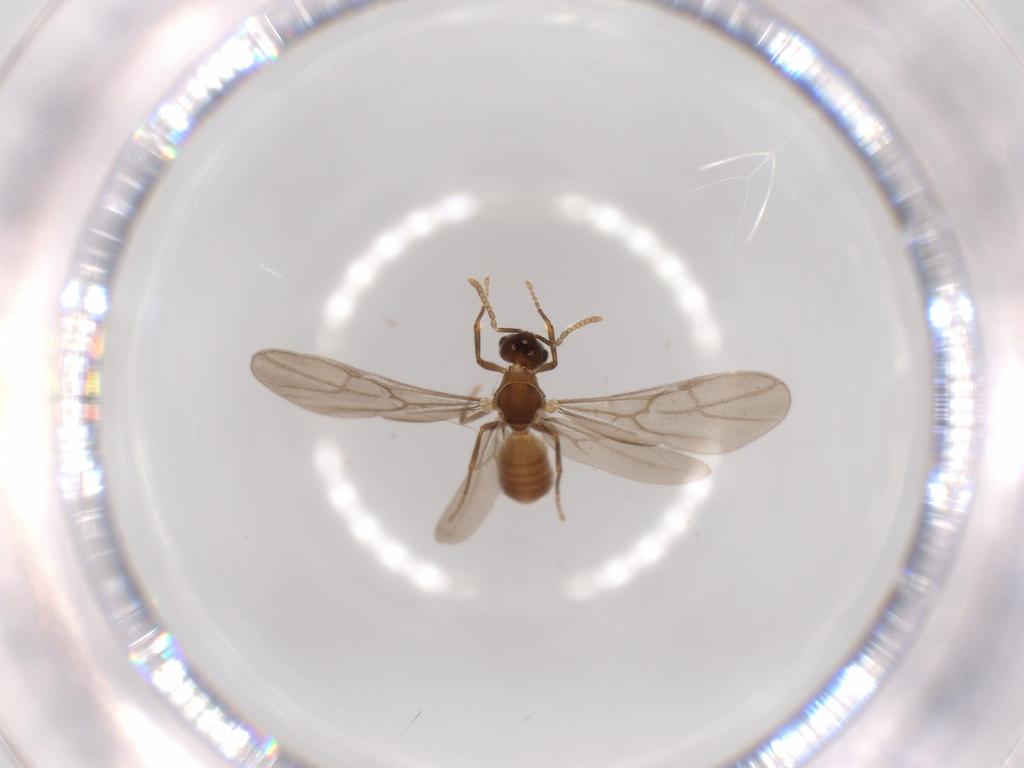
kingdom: Animalia
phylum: Arthropoda
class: Insecta
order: Hymenoptera
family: Formicidae
